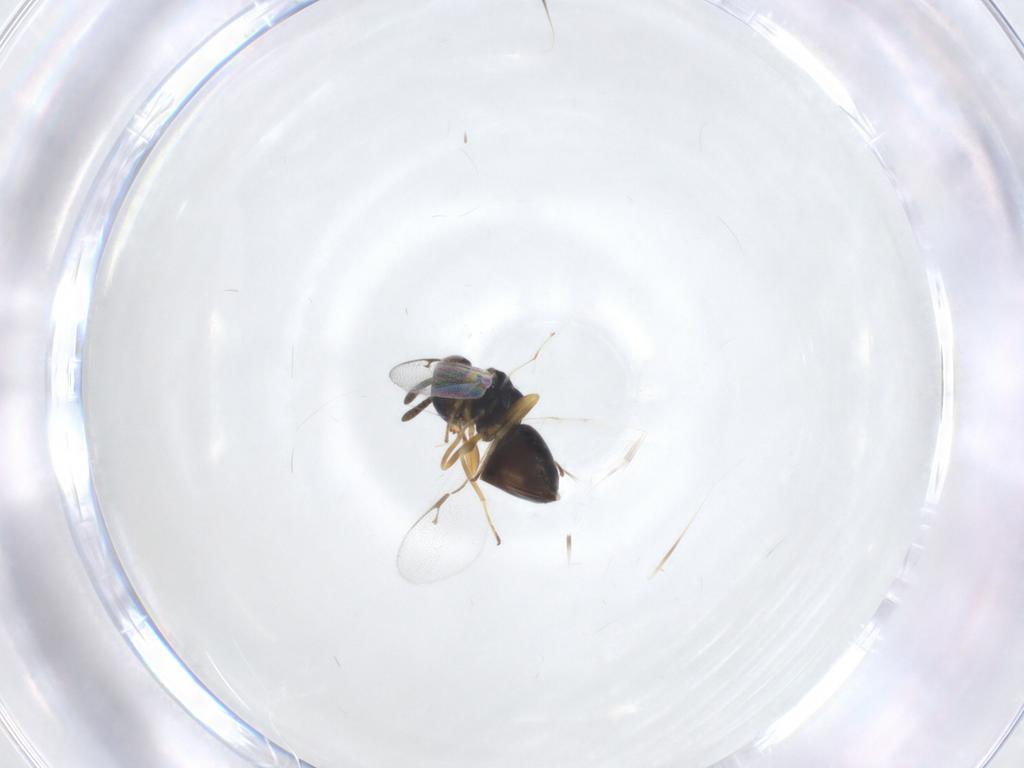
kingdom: Animalia
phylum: Arthropoda
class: Insecta
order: Hymenoptera
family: Pteromalidae
